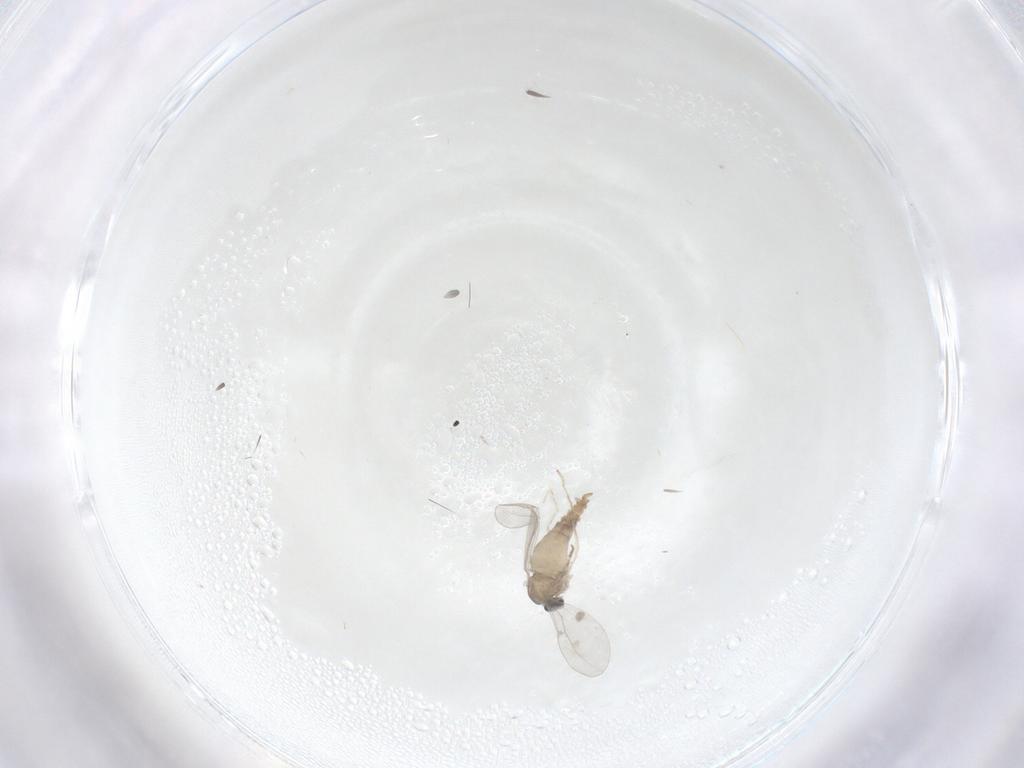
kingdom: Animalia
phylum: Arthropoda
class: Insecta
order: Diptera
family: Cecidomyiidae
